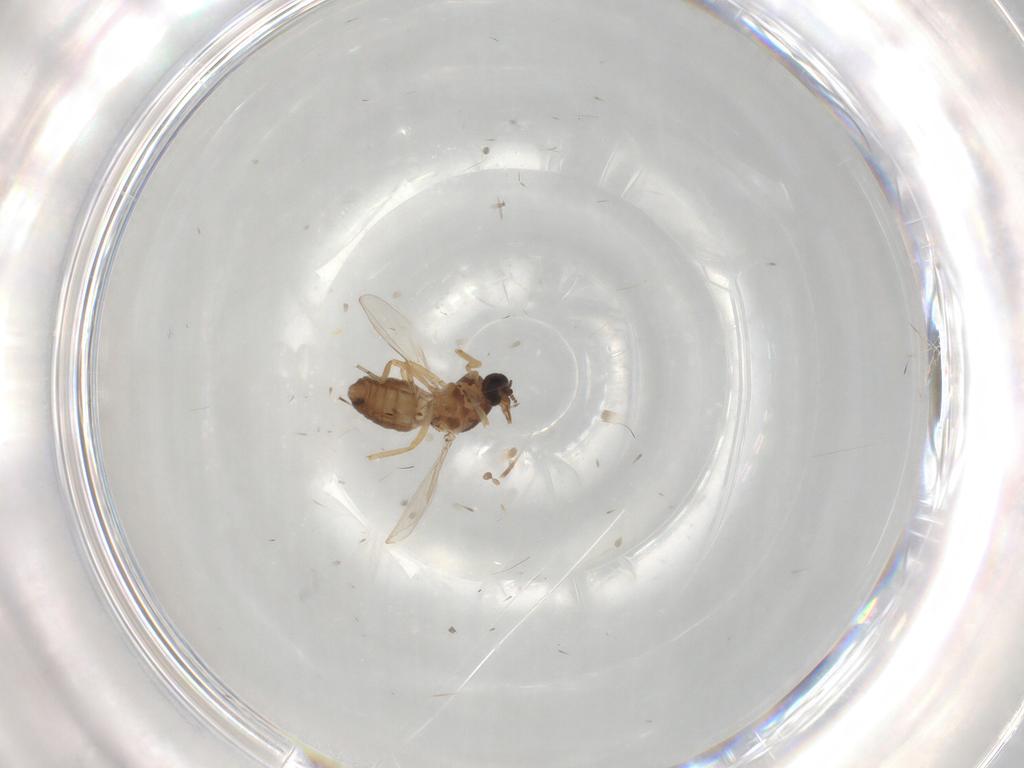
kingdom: Animalia
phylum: Arthropoda
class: Insecta
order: Diptera
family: Ceratopogonidae
